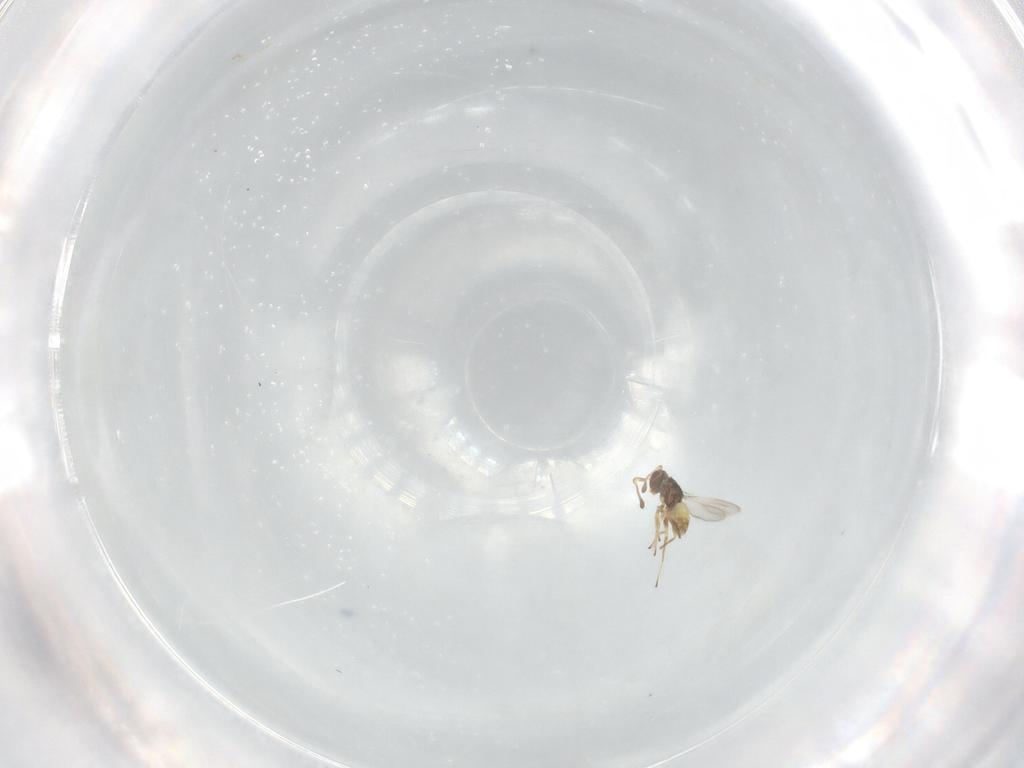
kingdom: Animalia
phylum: Arthropoda
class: Insecta
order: Hymenoptera
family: Mymaridae
